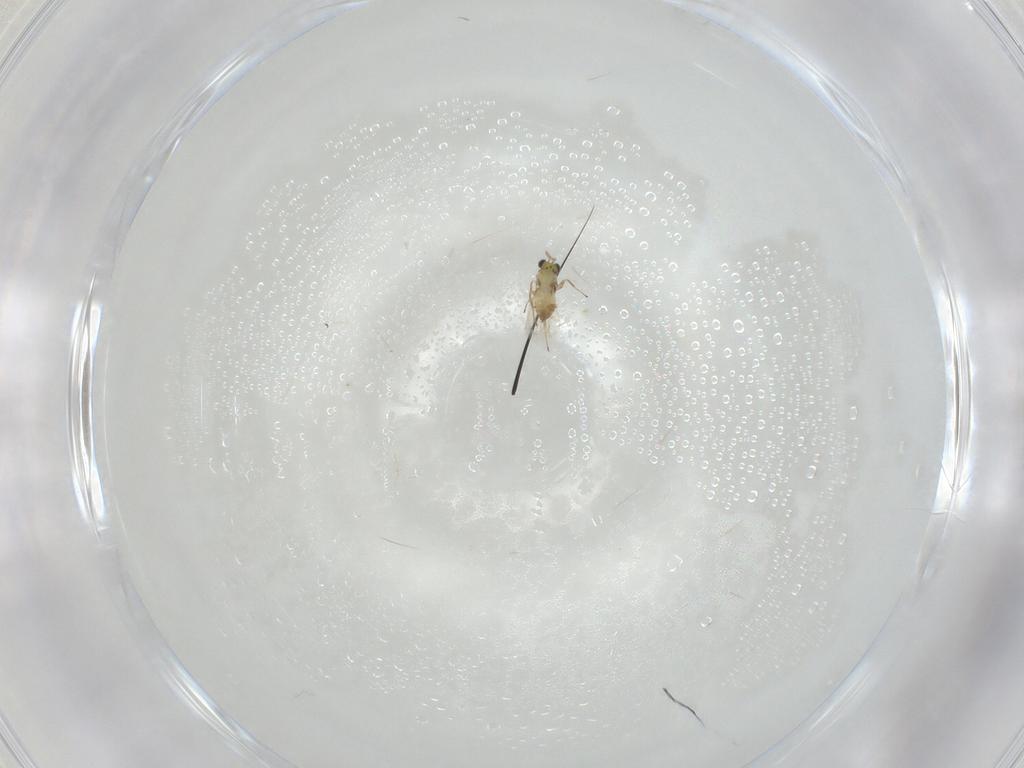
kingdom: Animalia
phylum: Arthropoda
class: Insecta
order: Hymenoptera
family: Trichogrammatidae
